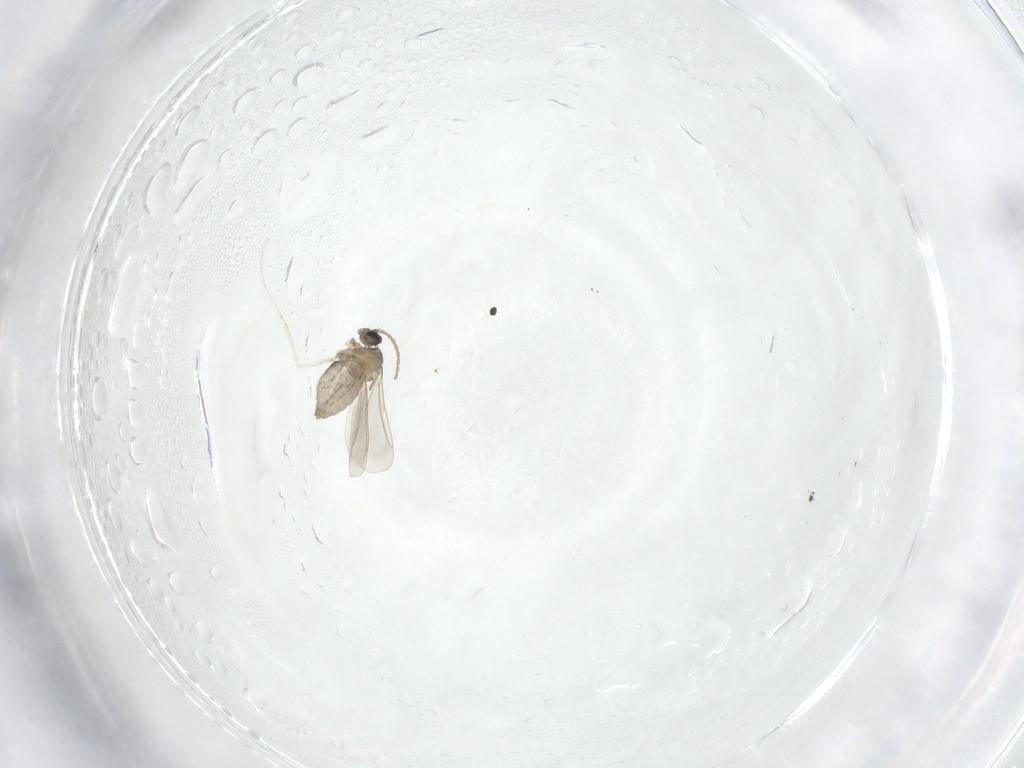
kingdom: Animalia
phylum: Arthropoda
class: Insecta
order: Diptera
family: Cecidomyiidae
